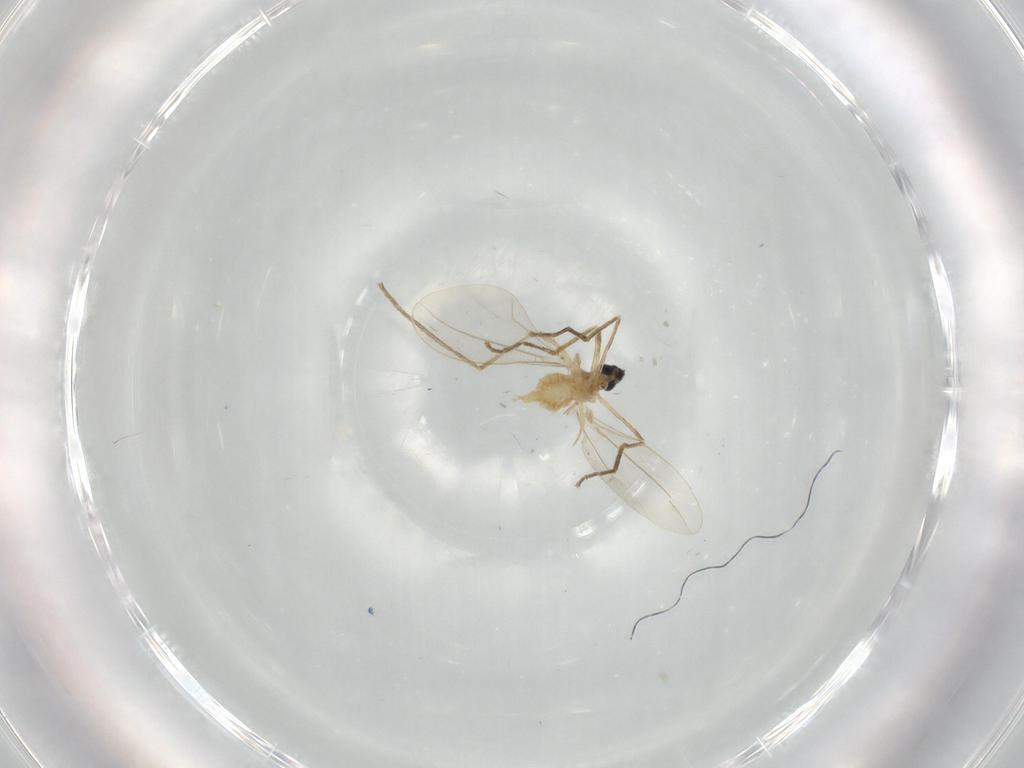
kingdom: Animalia
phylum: Arthropoda
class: Insecta
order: Diptera
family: Cecidomyiidae
